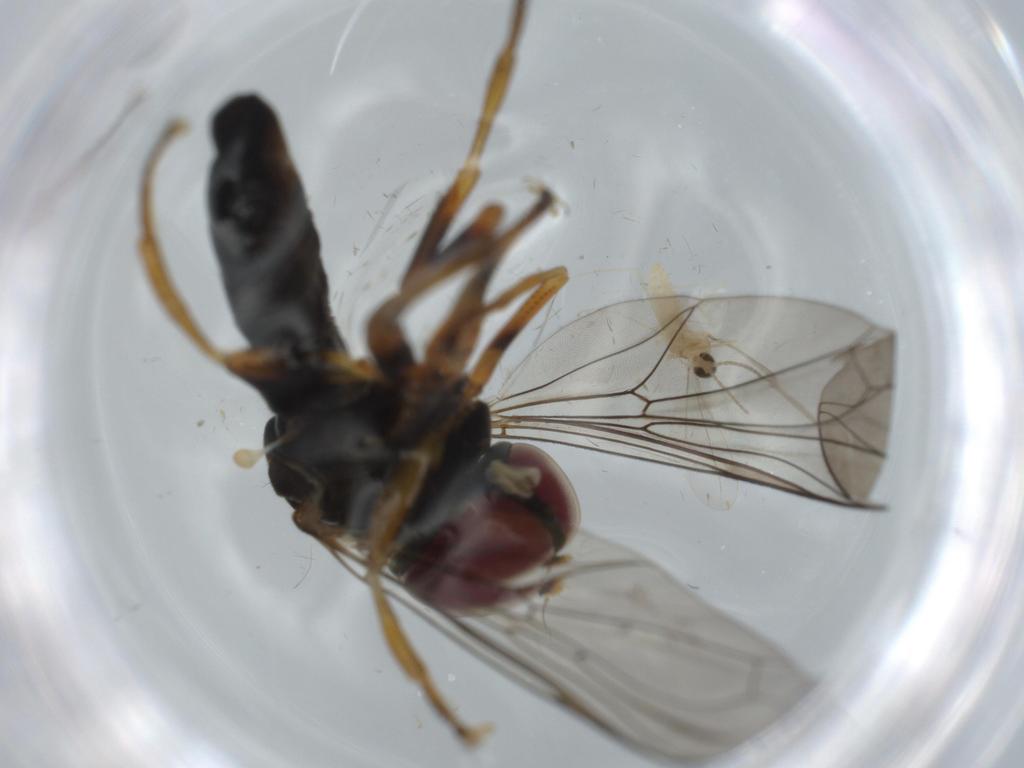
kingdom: Animalia
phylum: Arthropoda
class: Insecta
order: Diptera
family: Cecidomyiidae
